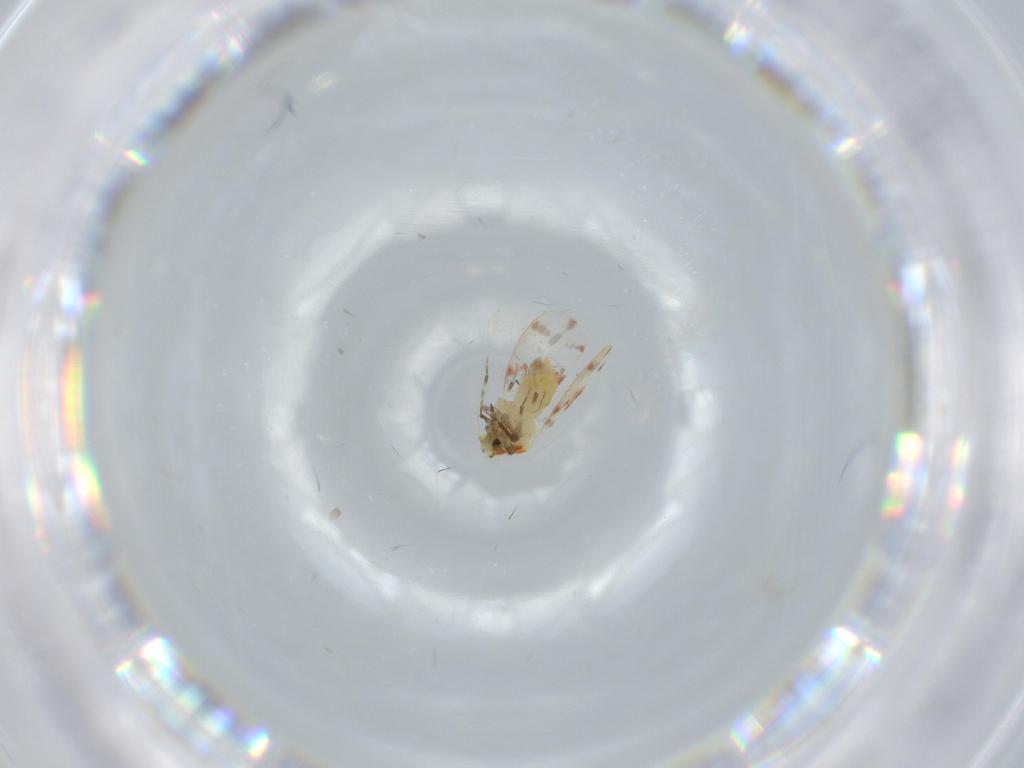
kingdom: Animalia
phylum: Arthropoda
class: Insecta
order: Hemiptera
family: Aleyrodidae
